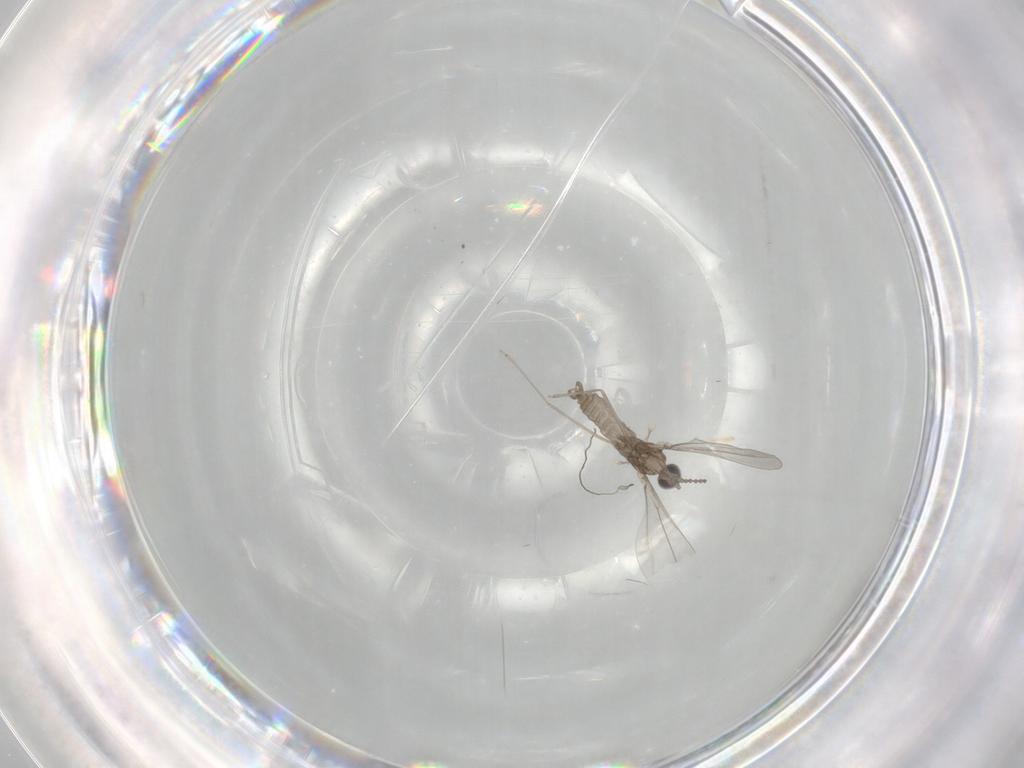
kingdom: Animalia
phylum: Arthropoda
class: Insecta
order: Diptera
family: Cecidomyiidae
